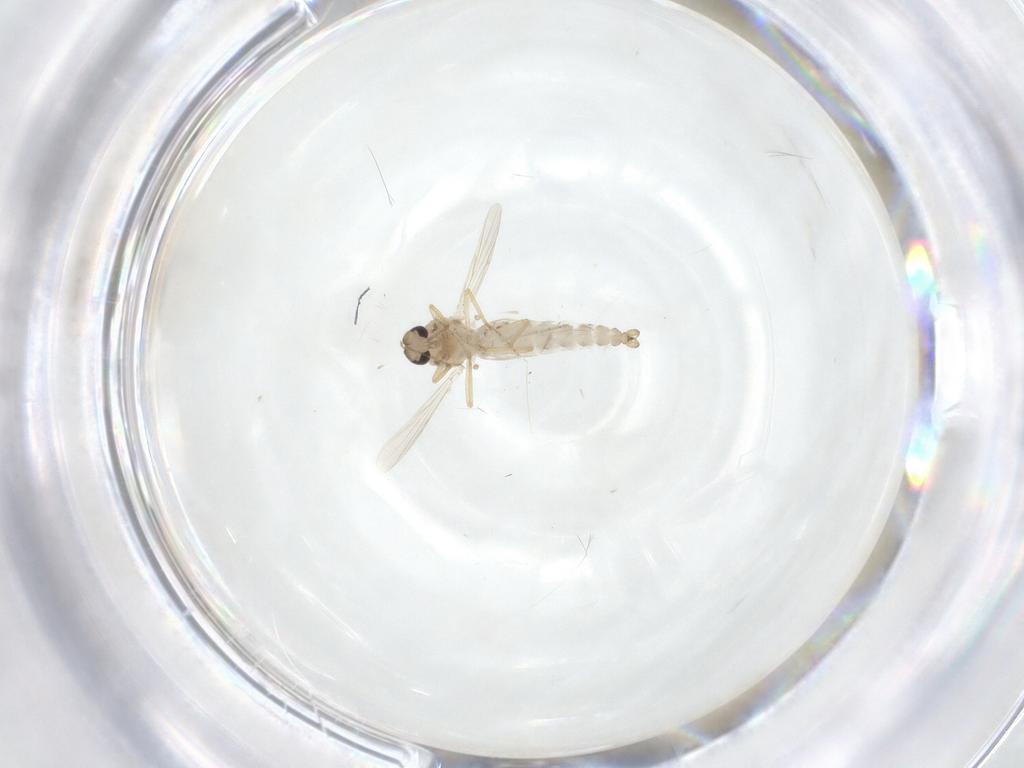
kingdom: Animalia
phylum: Arthropoda
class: Insecta
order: Diptera
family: Ceratopogonidae
